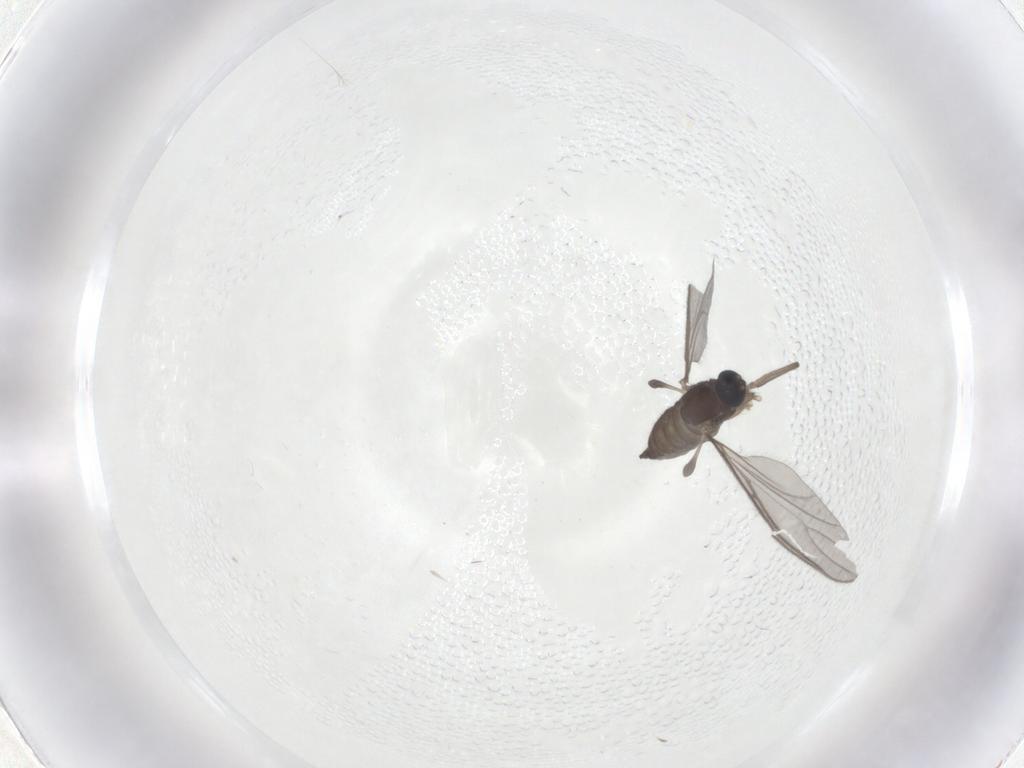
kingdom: Animalia
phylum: Arthropoda
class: Insecta
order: Diptera
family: Sciaridae
